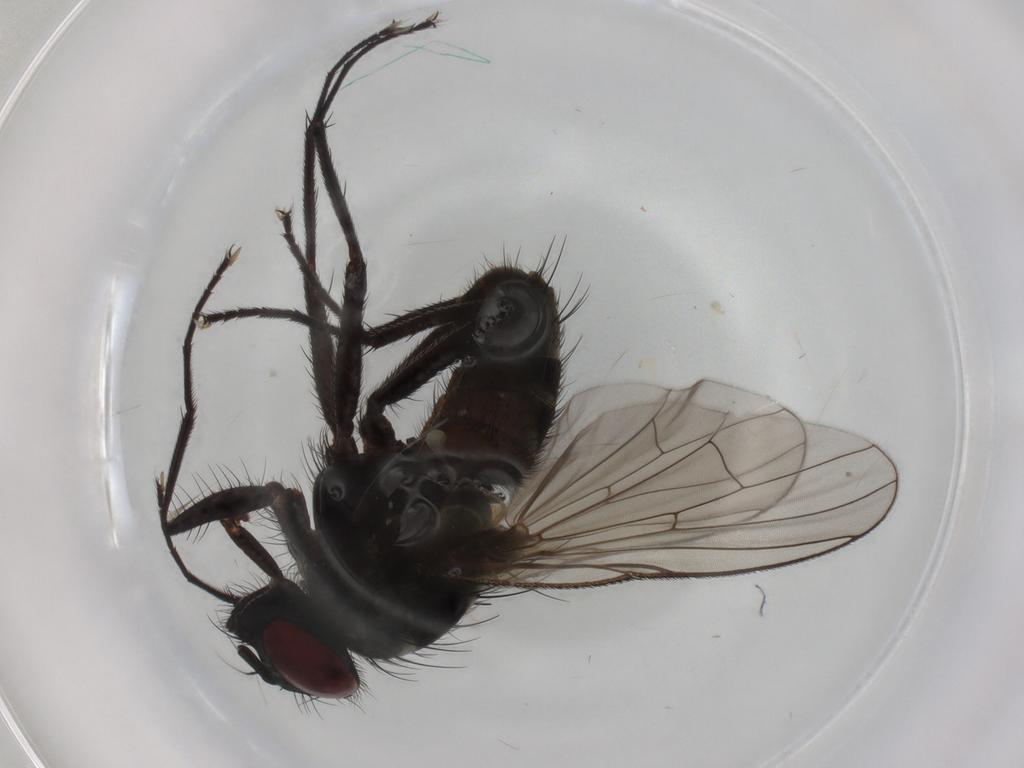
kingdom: Animalia
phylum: Arthropoda
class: Insecta
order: Diptera
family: Muscidae
